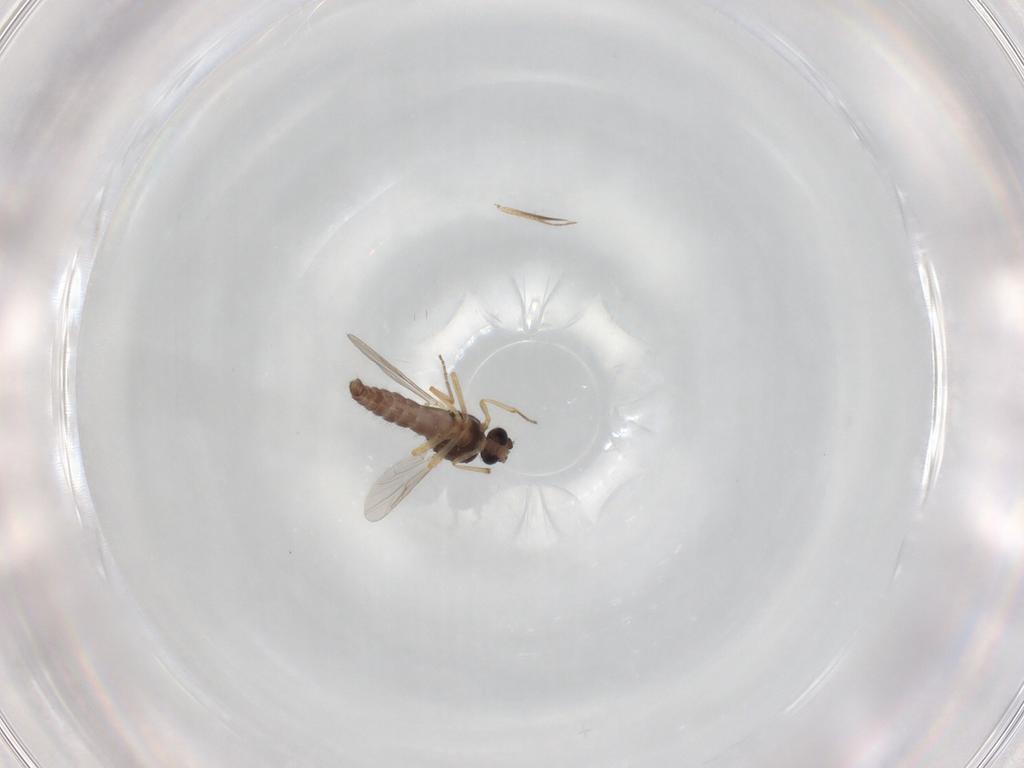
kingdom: Animalia
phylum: Arthropoda
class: Insecta
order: Diptera
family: Ceratopogonidae
